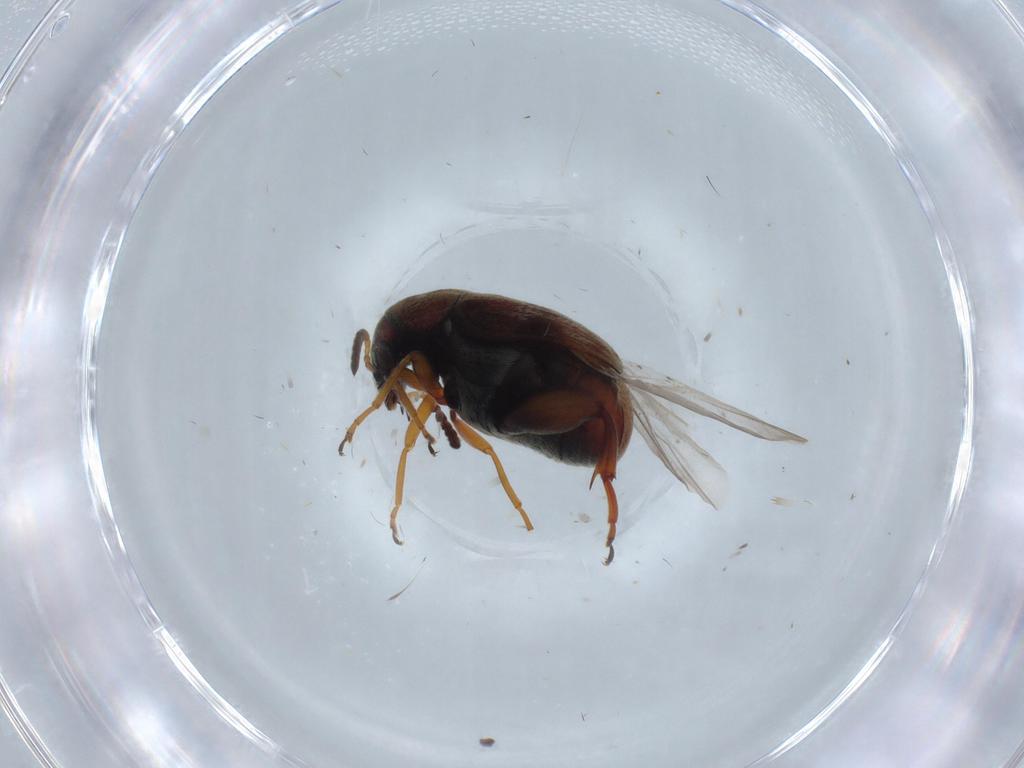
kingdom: Animalia
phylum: Arthropoda
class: Insecta
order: Coleoptera
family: Chrysomelidae
